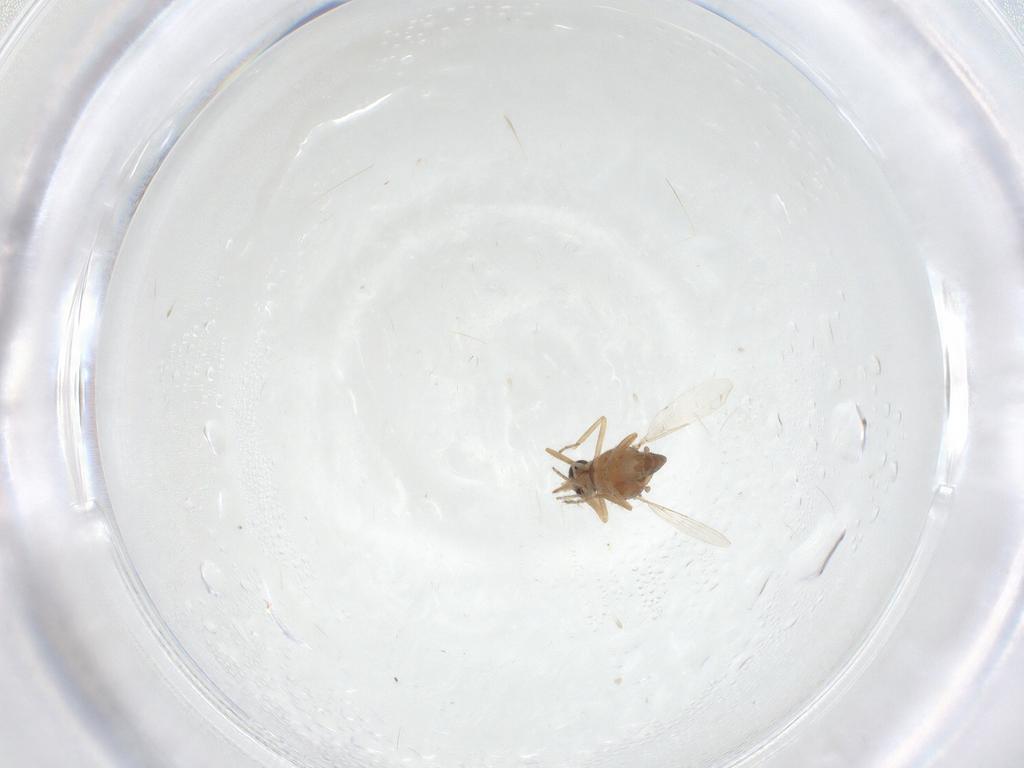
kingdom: Animalia
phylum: Arthropoda
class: Insecta
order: Diptera
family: Ceratopogonidae
